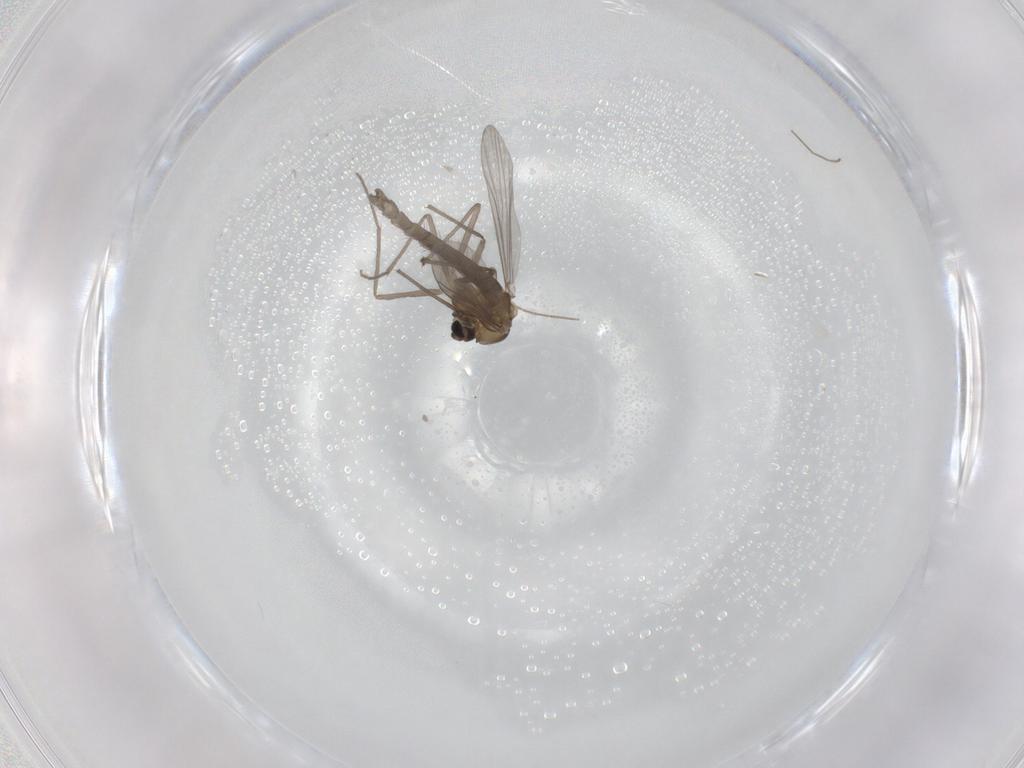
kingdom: Animalia
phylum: Arthropoda
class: Insecta
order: Diptera
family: Chironomidae
